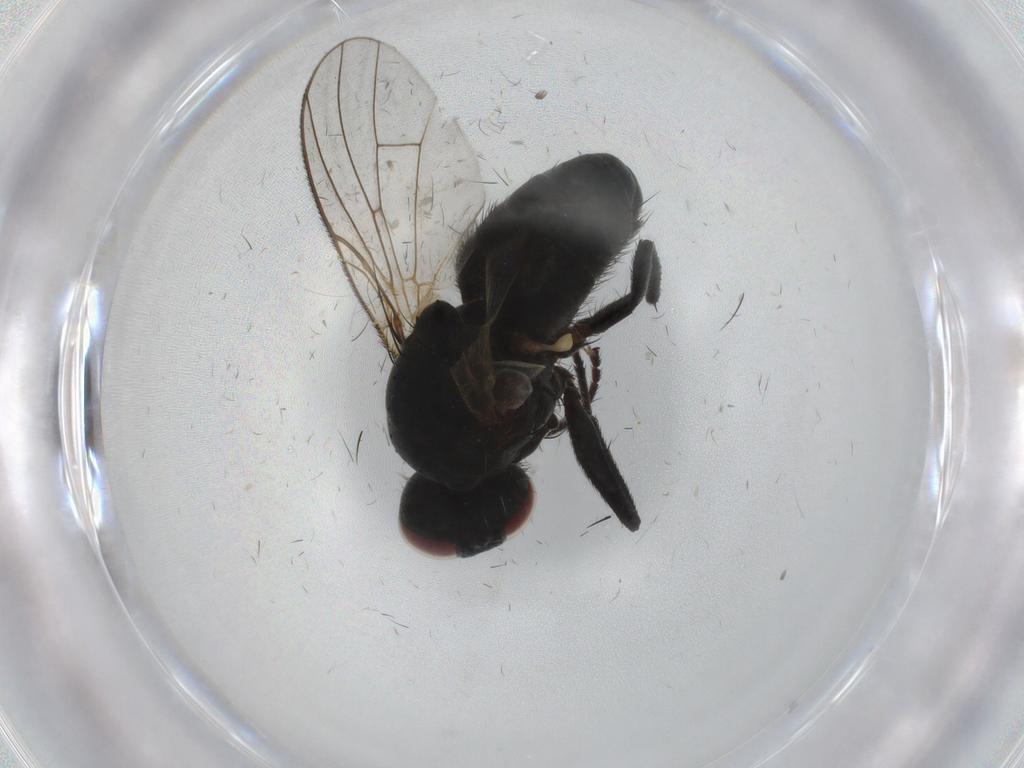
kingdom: Animalia
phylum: Arthropoda
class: Insecta
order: Diptera
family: Muscidae
